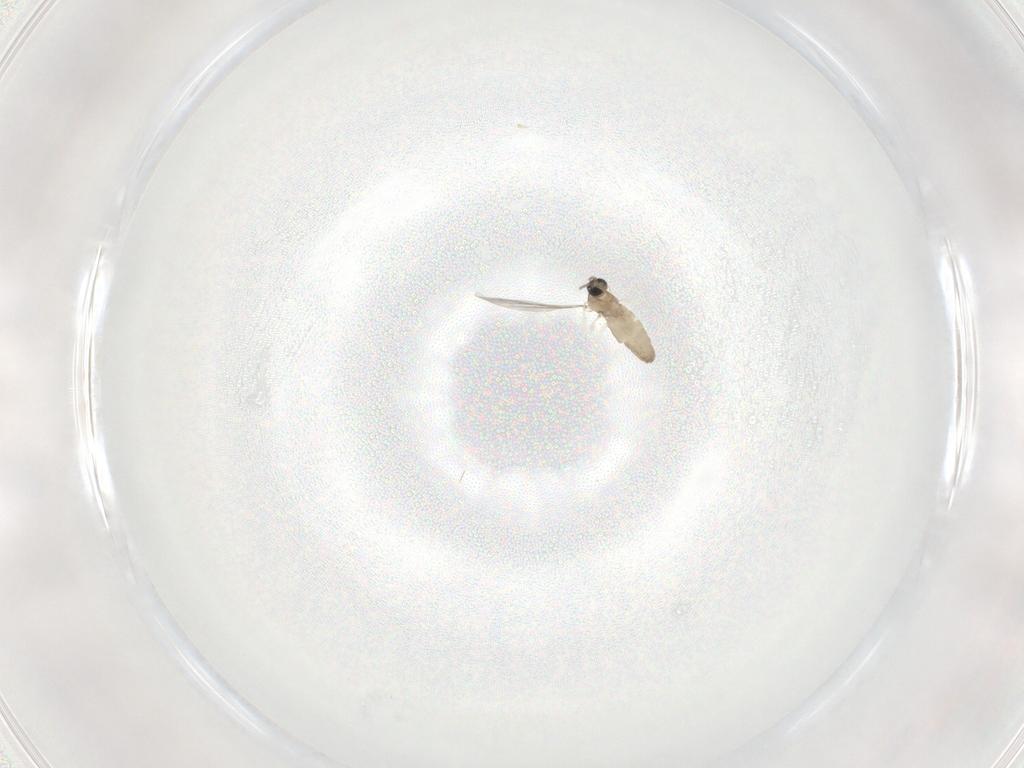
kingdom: Animalia
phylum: Arthropoda
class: Insecta
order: Diptera
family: Cecidomyiidae
